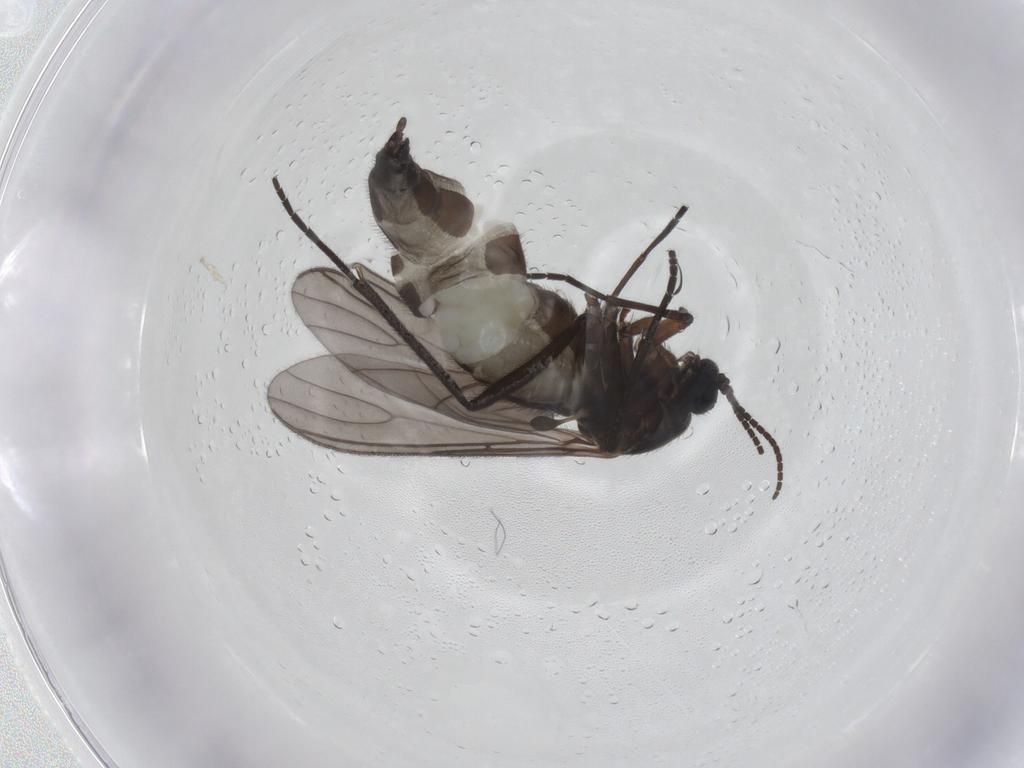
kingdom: Animalia
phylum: Arthropoda
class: Insecta
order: Diptera
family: Sciaridae
